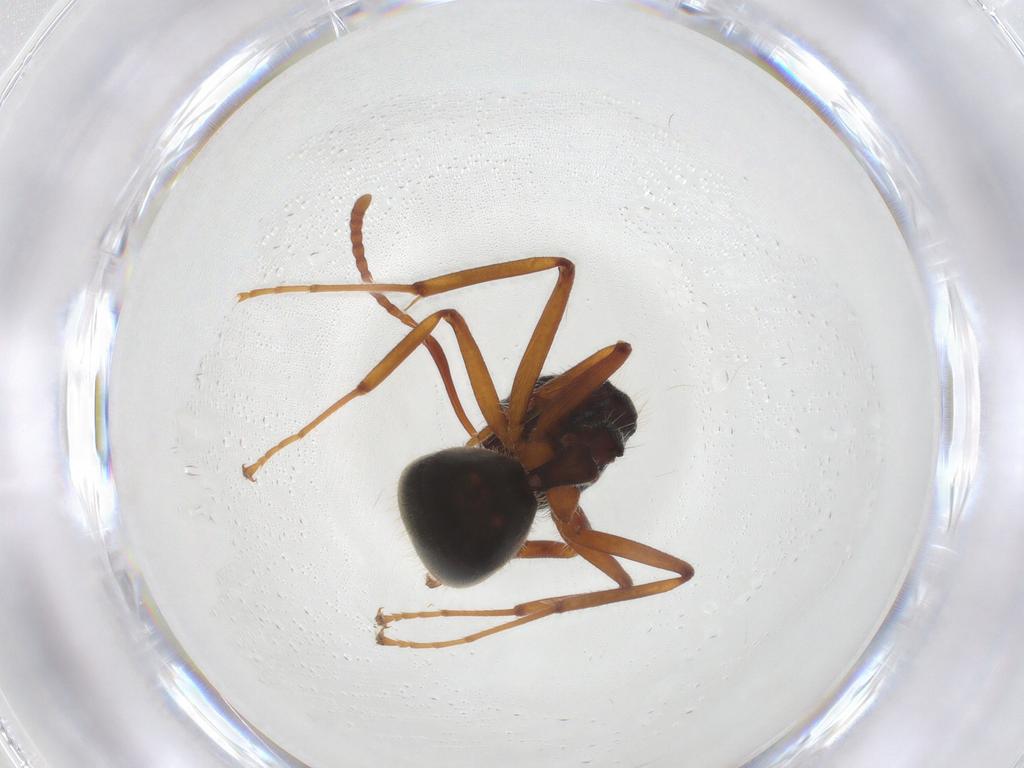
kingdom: Animalia
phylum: Arthropoda
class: Insecta
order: Hymenoptera
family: Formicidae
